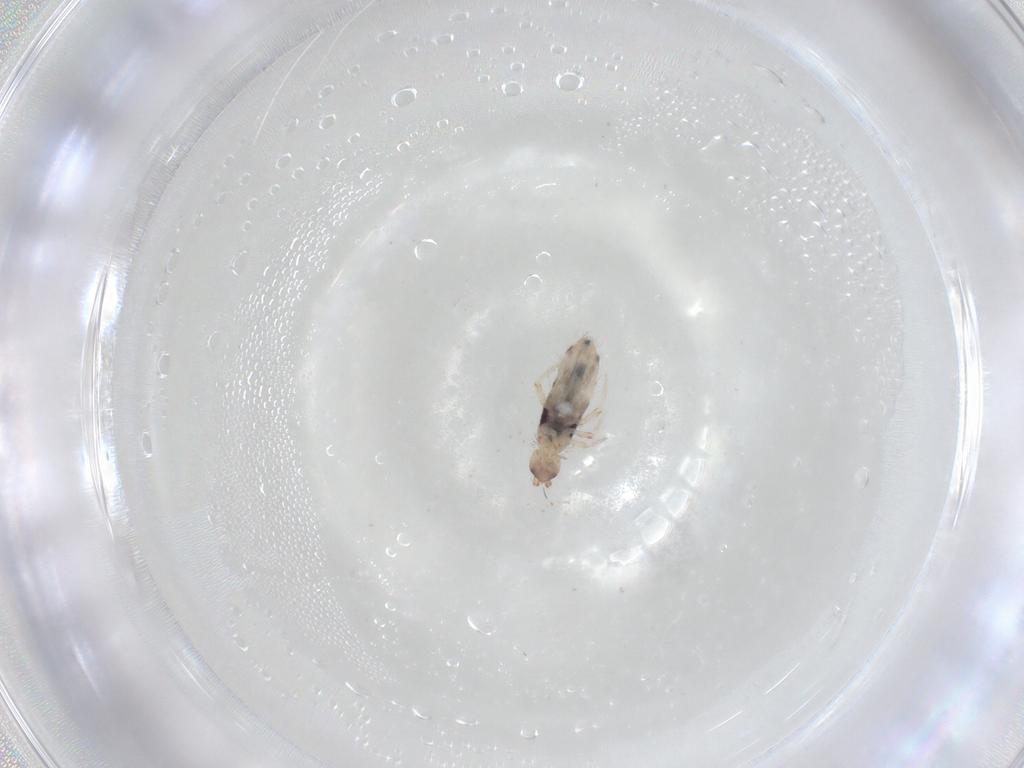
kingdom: Animalia
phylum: Arthropoda
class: Collembola
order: Entomobryomorpha
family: Entomobryidae
